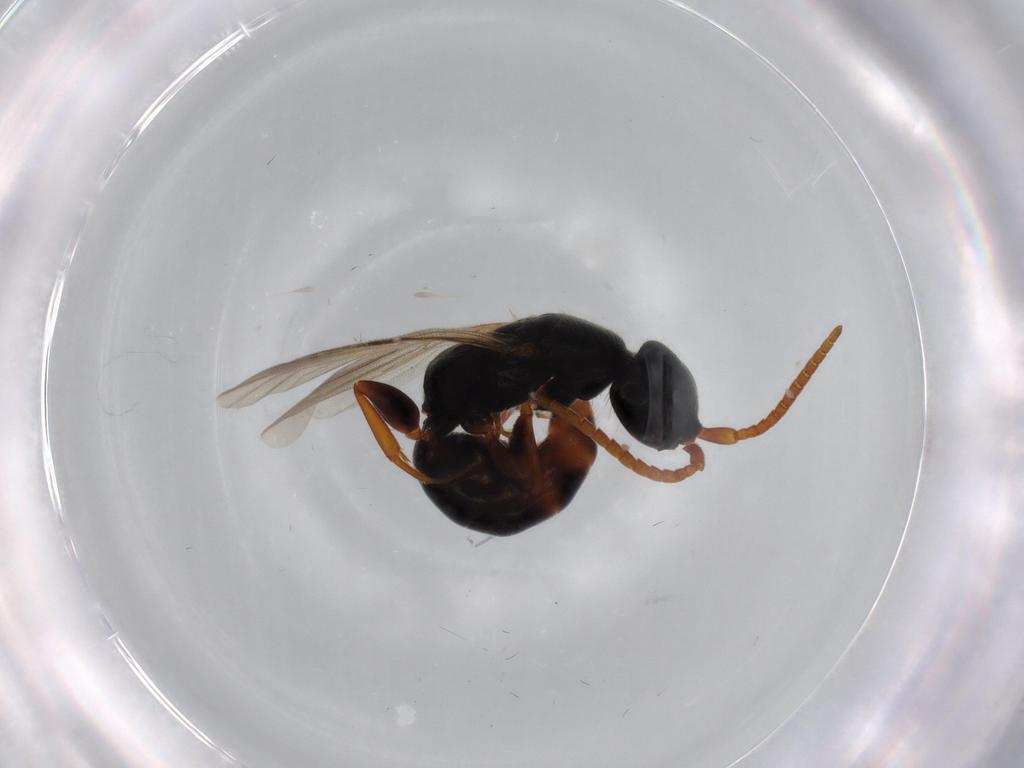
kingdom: Animalia
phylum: Arthropoda
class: Insecta
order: Hymenoptera
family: Bethylidae
